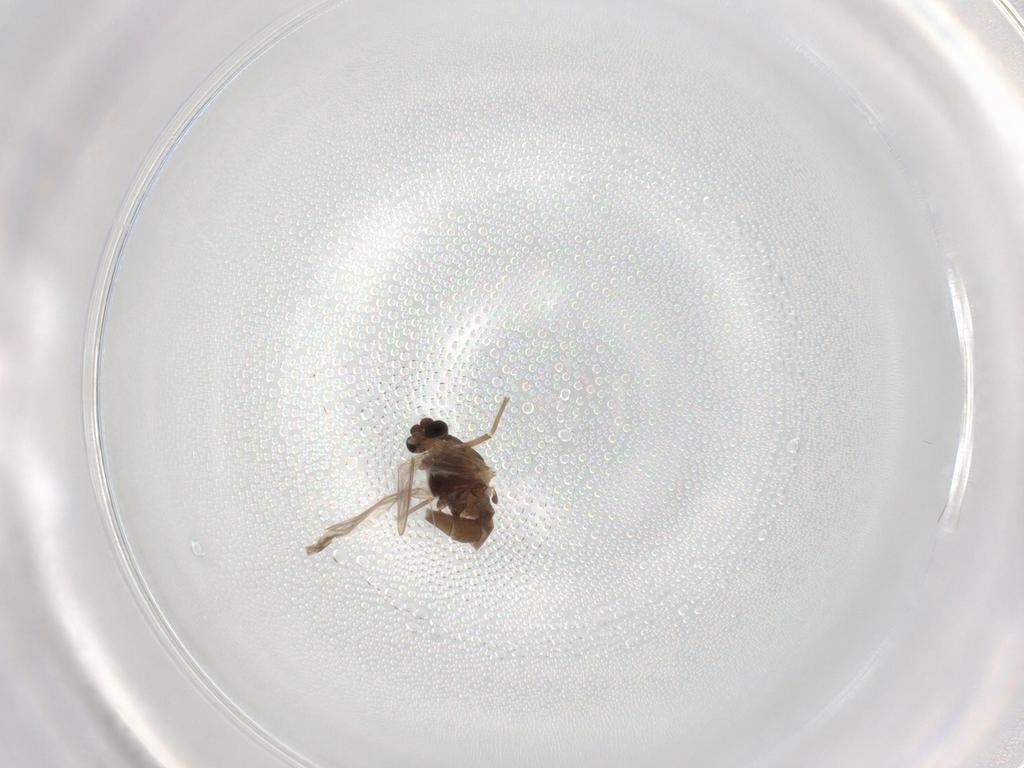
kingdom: Animalia
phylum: Arthropoda
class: Insecta
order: Diptera
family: Chironomidae
